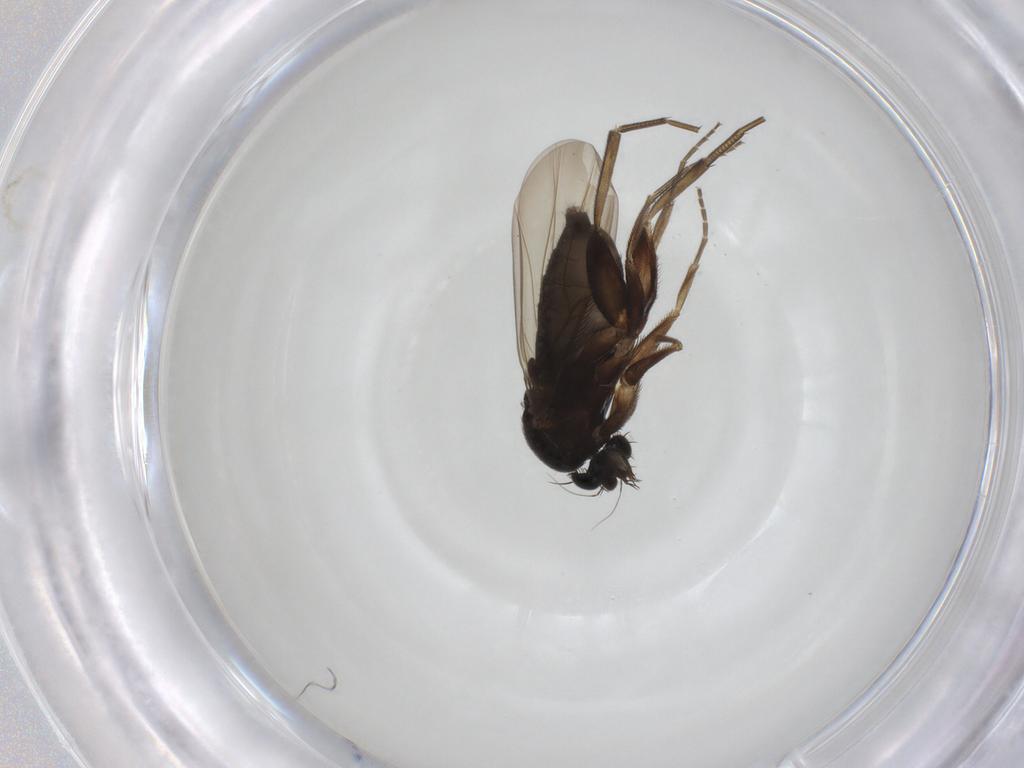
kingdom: Animalia
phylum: Arthropoda
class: Insecta
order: Diptera
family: Phoridae
